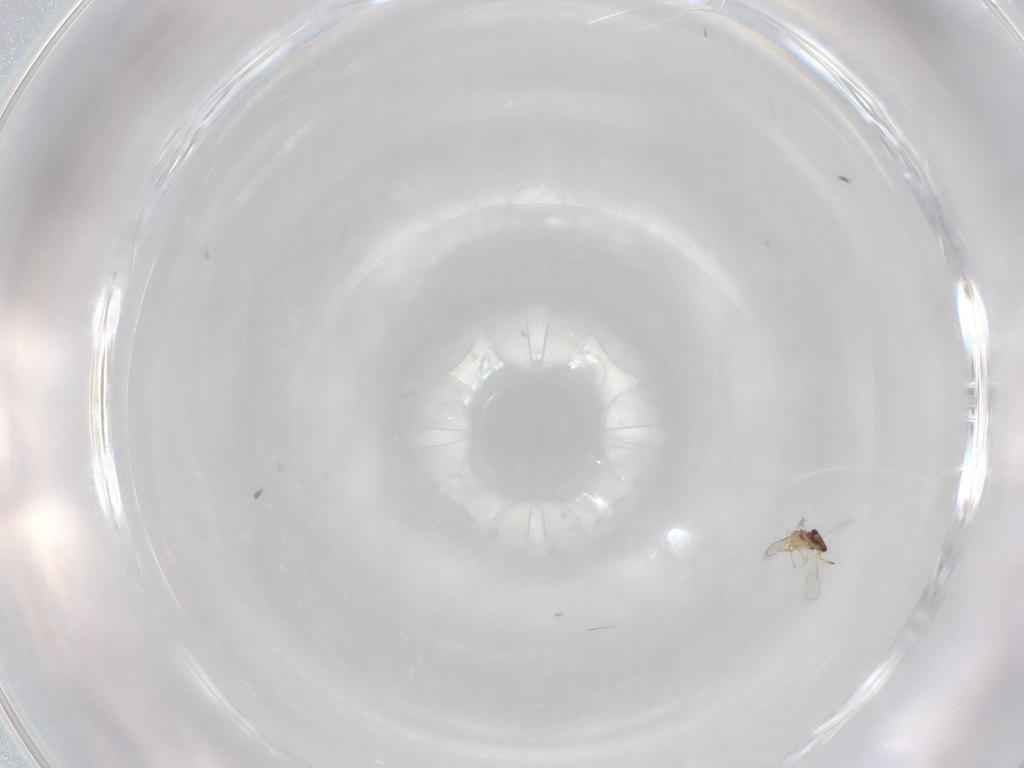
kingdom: Animalia
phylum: Arthropoda
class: Insecta
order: Hymenoptera
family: Aphelinidae
